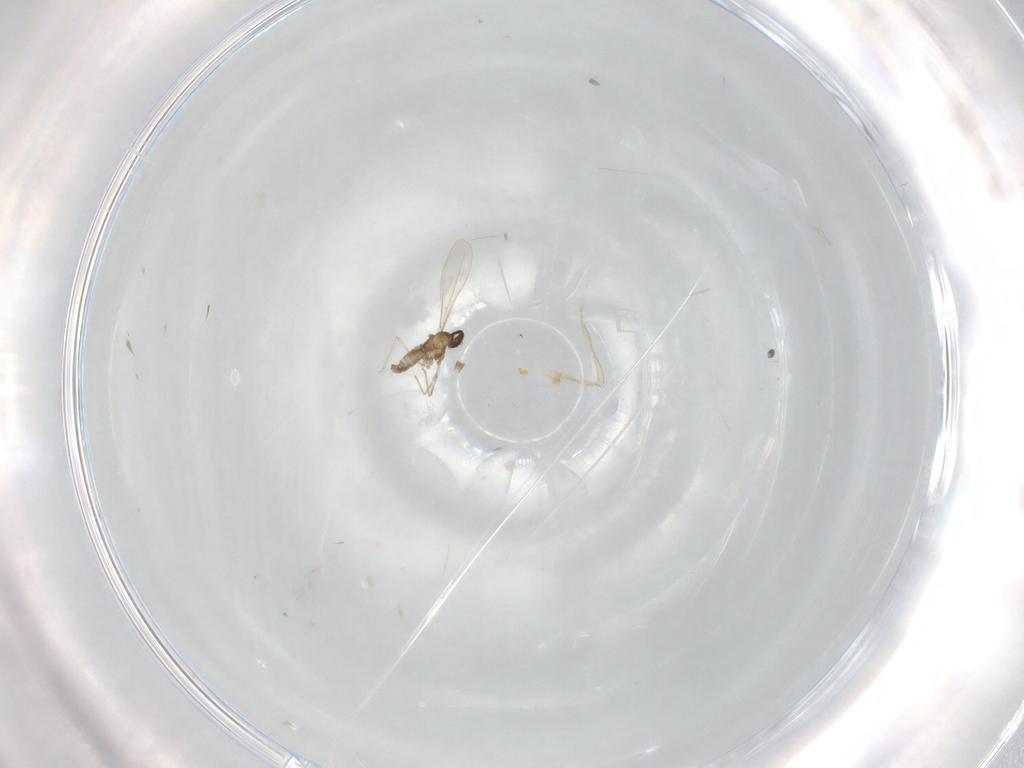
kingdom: Animalia
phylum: Arthropoda
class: Insecta
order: Diptera
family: Cecidomyiidae
